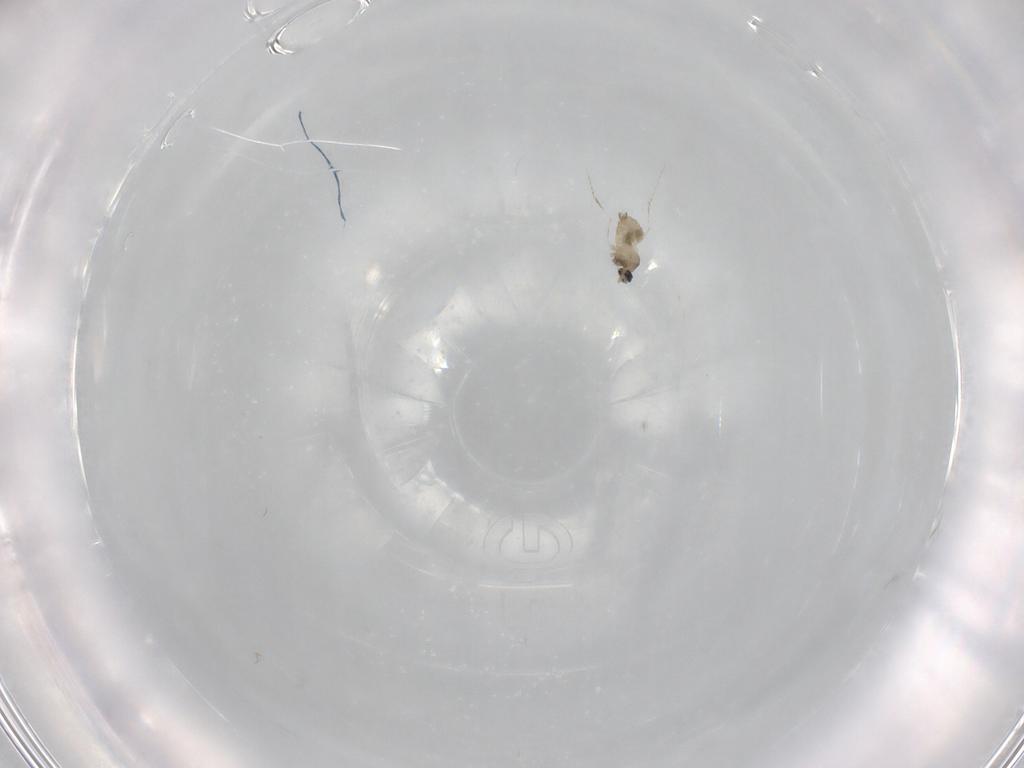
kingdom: Animalia
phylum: Arthropoda
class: Insecta
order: Diptera
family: Cecidomyiidae
